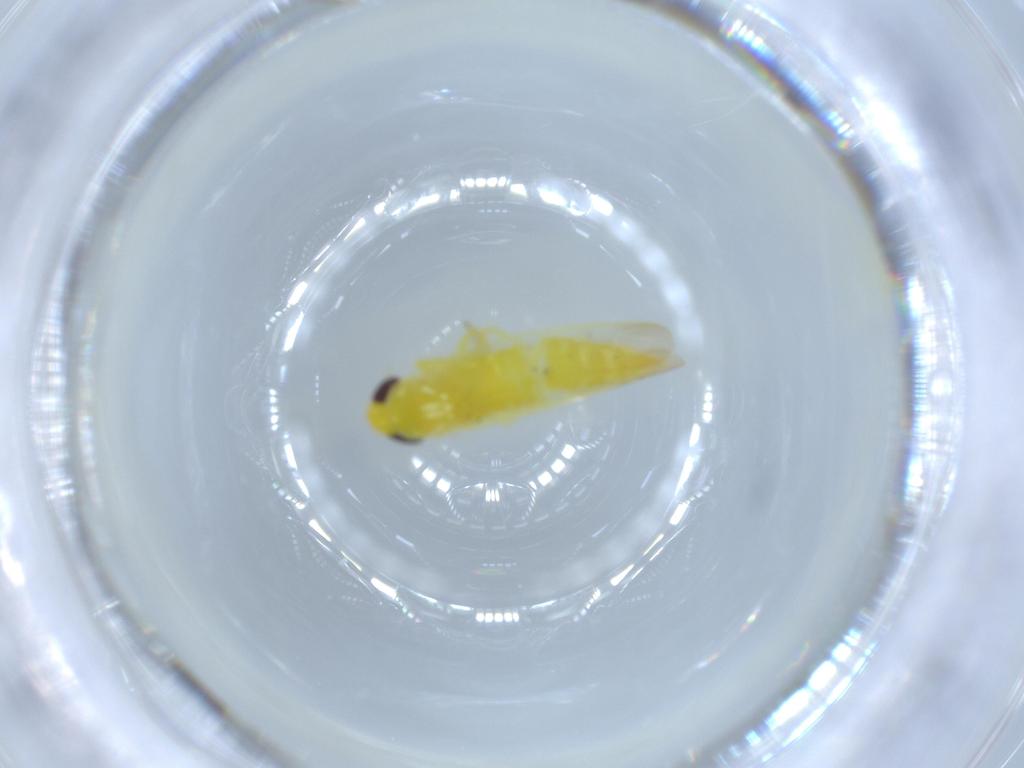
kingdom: Animalia
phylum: Arthropoda
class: Insecta
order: Hemiptera
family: Cicadellidae
